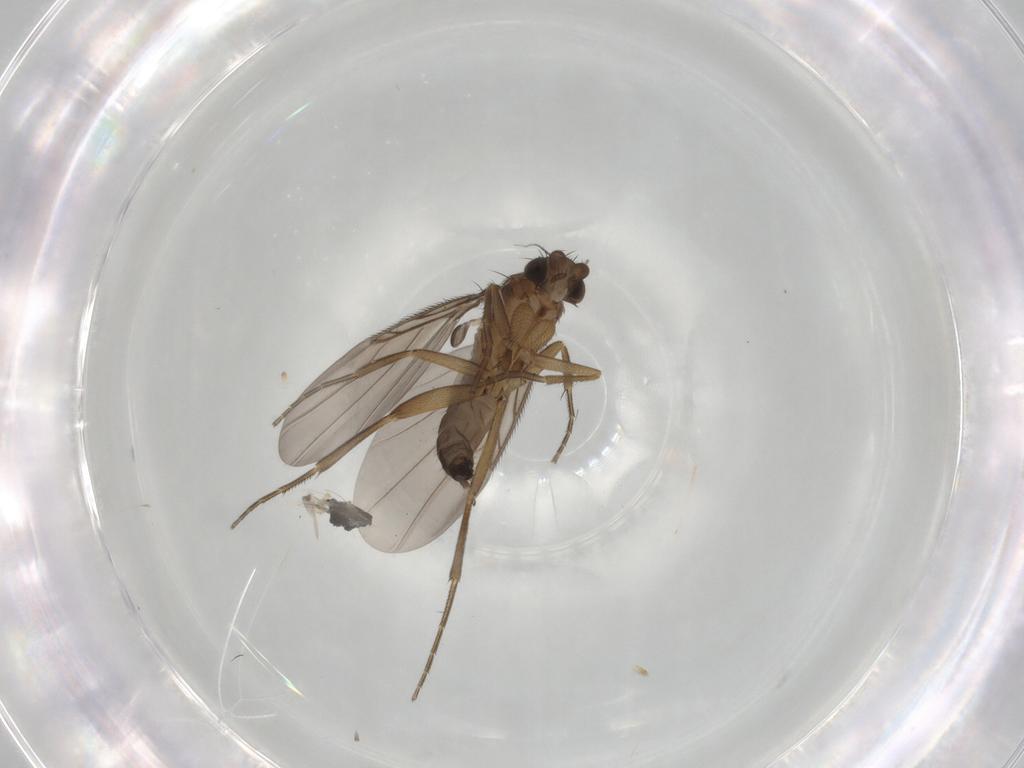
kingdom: Animalia
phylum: Arthropoda
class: Insecta
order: Diptera
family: Phoridae
